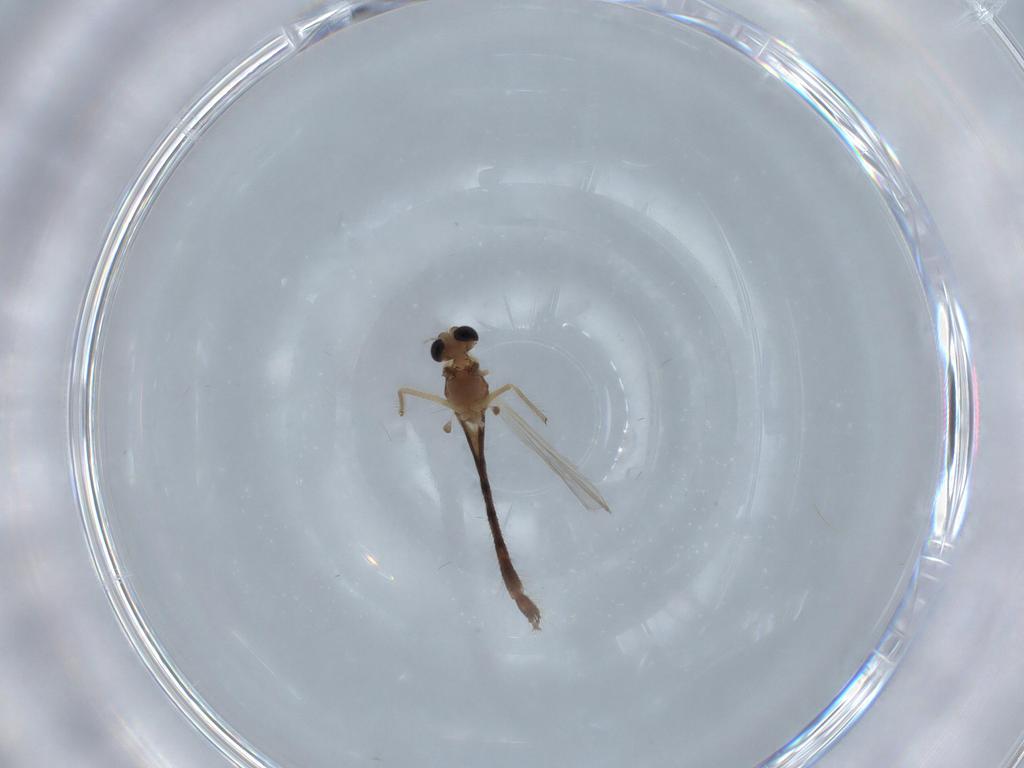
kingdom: Animalia
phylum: Arthropoda
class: Insecta
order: Diptera
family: Chironomidae
